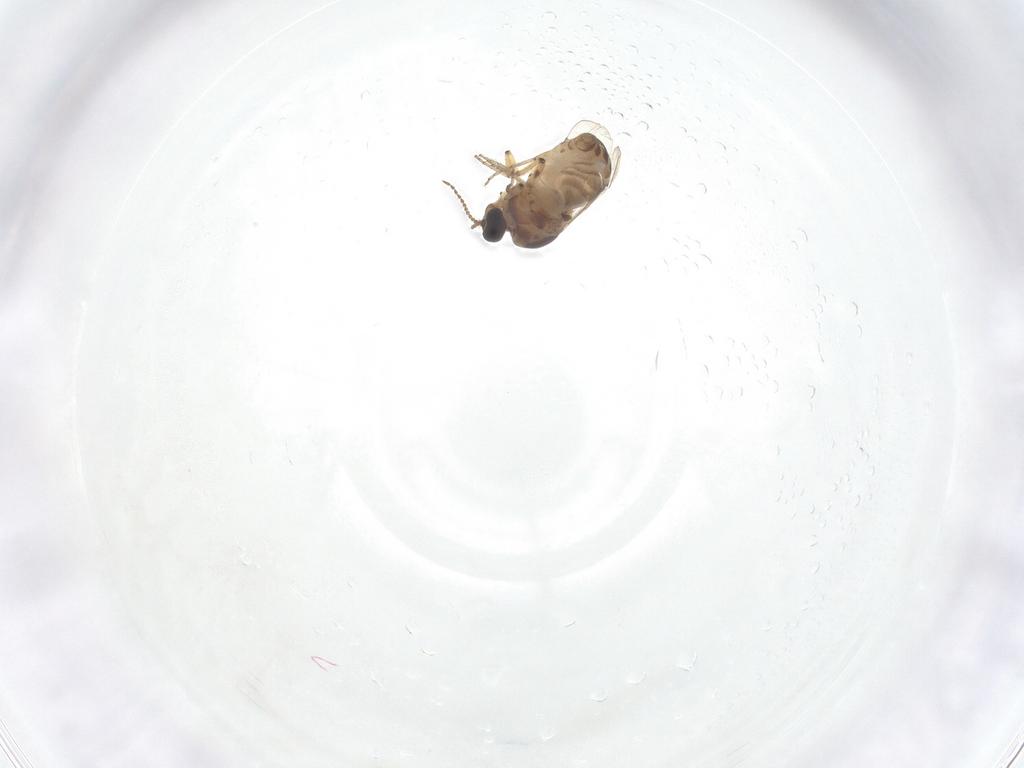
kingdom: Animalia
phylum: Arthropoda
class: Insecta
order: Diptera
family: Ceratopogonidae
